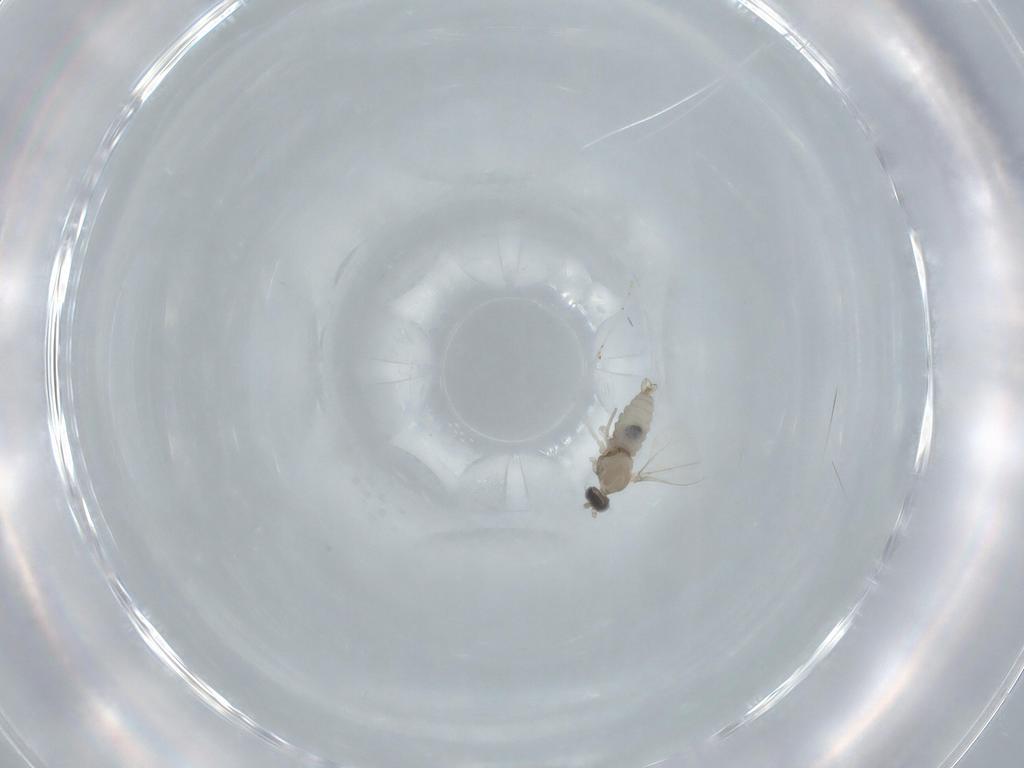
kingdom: Animalia
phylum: Arthropoda
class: Insecta
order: Diptera
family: Cecidomyiidae
